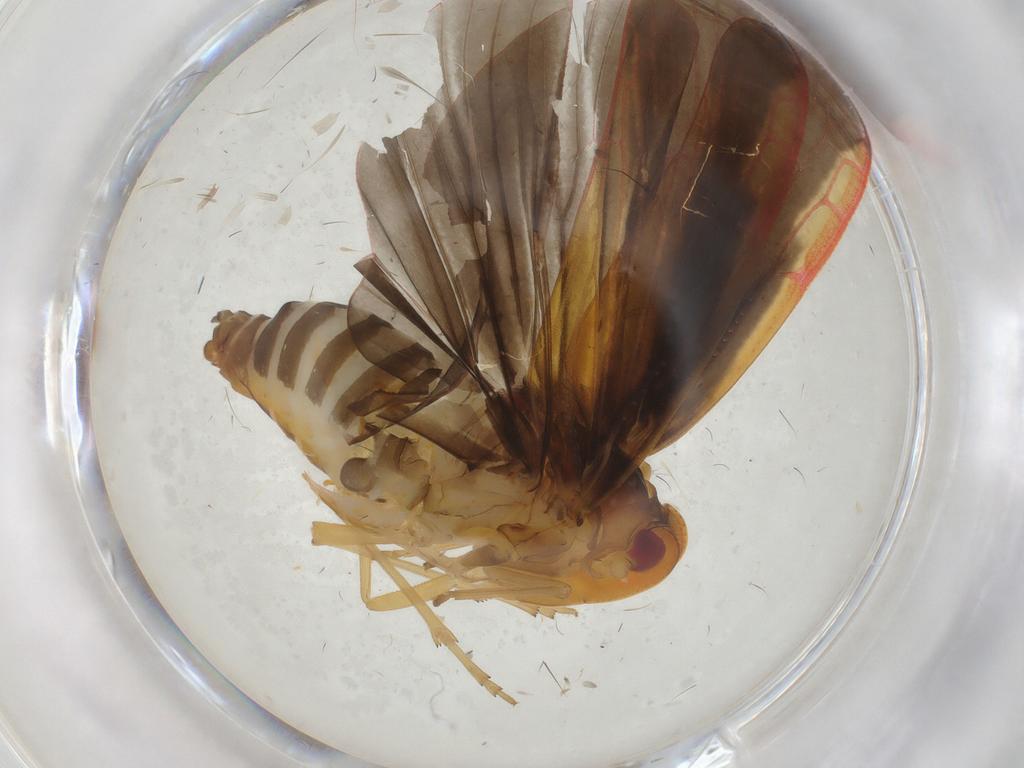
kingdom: Animalia
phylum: Arthropoda
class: Insecta
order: Hemiptera
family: Derbidae
